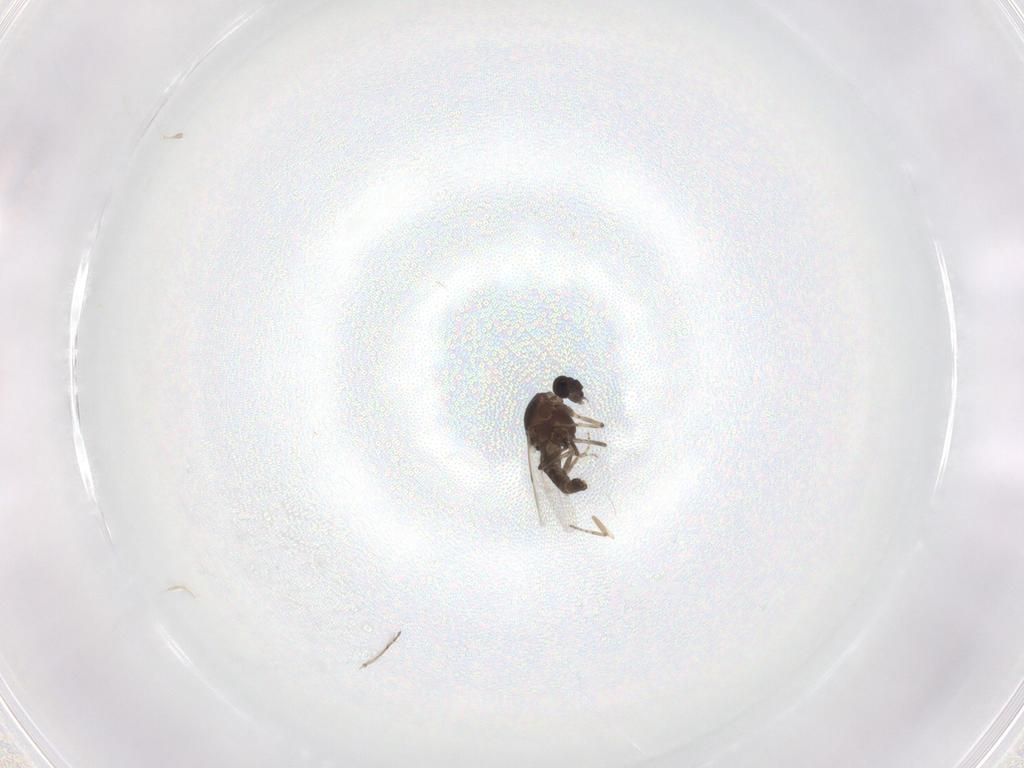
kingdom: Animalia
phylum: Arthropoda
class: Insecta
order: Diptera
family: Ceratopogonidae
